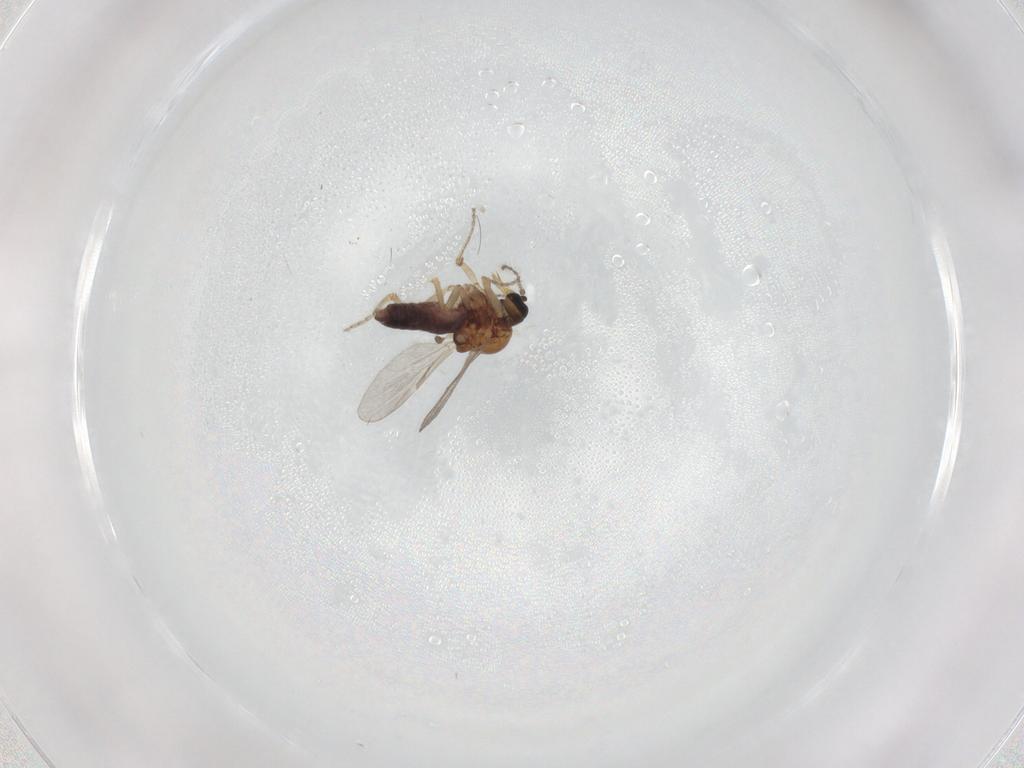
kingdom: Animalia
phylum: Arthropoda
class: Insecta
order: Diptera
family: Ceratopogonidae
